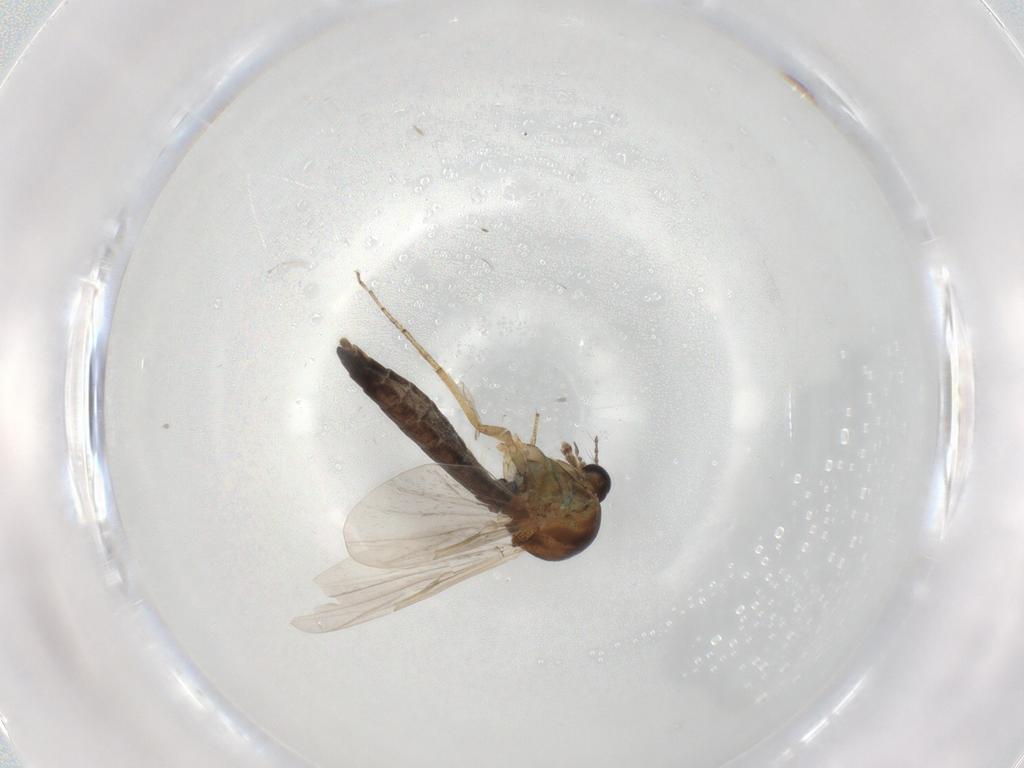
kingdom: Animalia
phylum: Arthropoda
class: Insecta
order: Diptera
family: Ceratopogonidae
